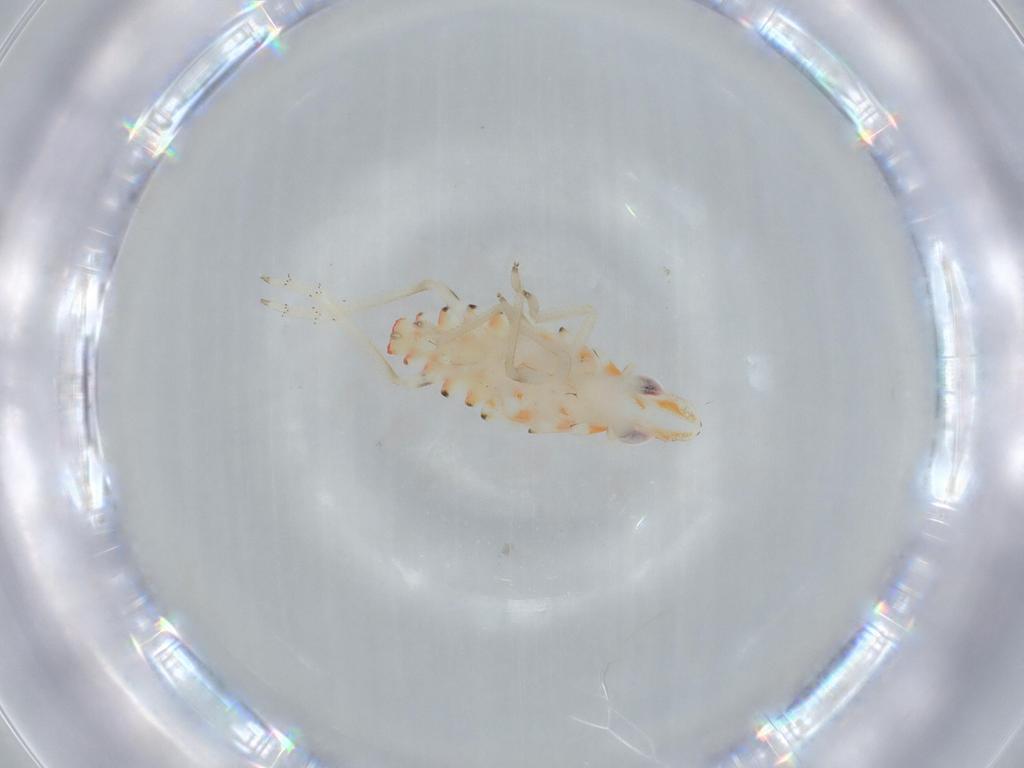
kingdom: Animalia
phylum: Arthropoda
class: Insecta
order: Hemiptera
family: Tropiduchidae
